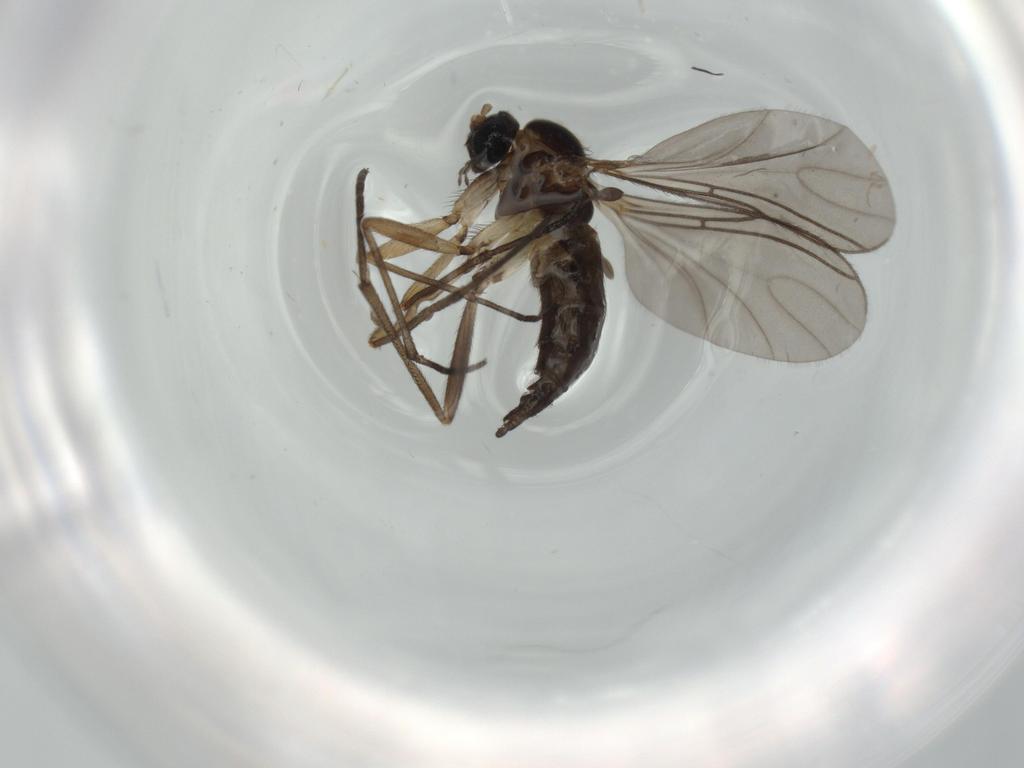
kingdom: Animalia
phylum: Arthropoda
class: Insecta
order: Diptera
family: Sciaridae
